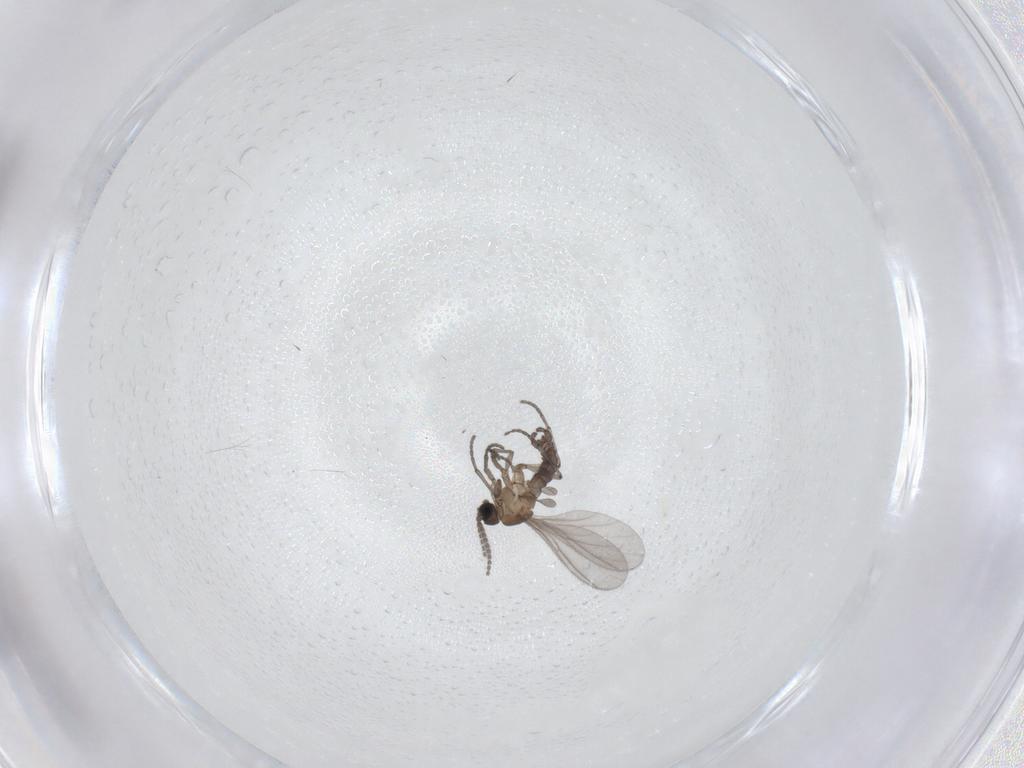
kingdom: Animalia
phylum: Arthropoda
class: Insecta
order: Diptera
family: Sciaridae
